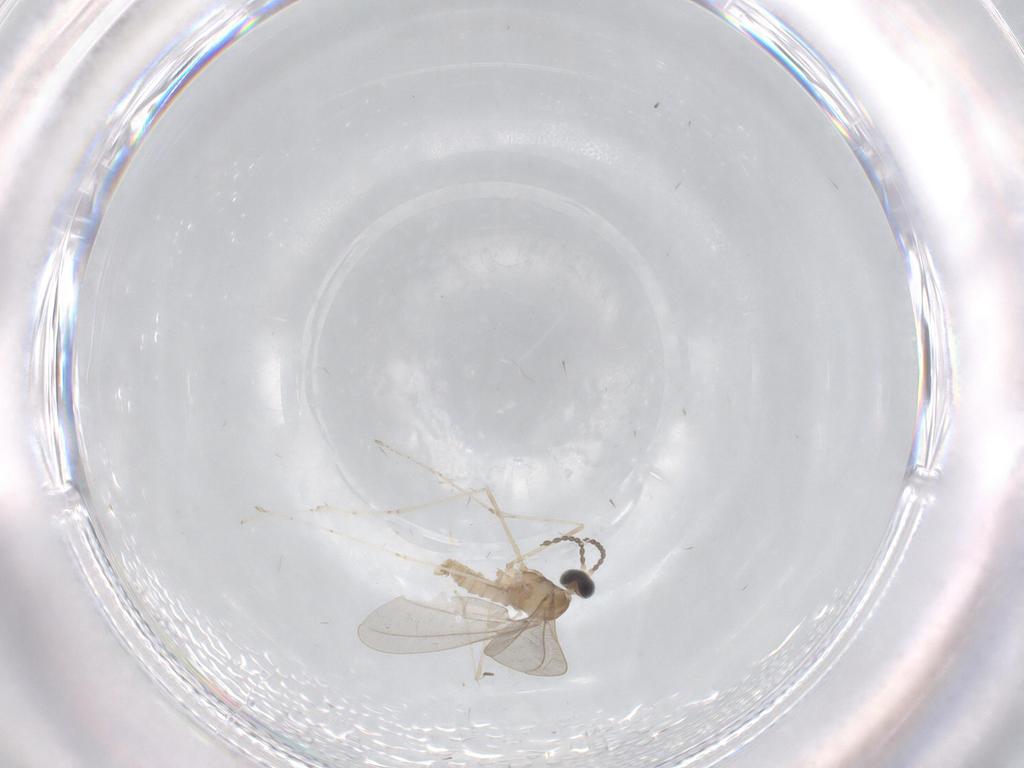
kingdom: Animalia
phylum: Arthropoda
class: Insecta
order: Diptera
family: Cecidomyiidae
